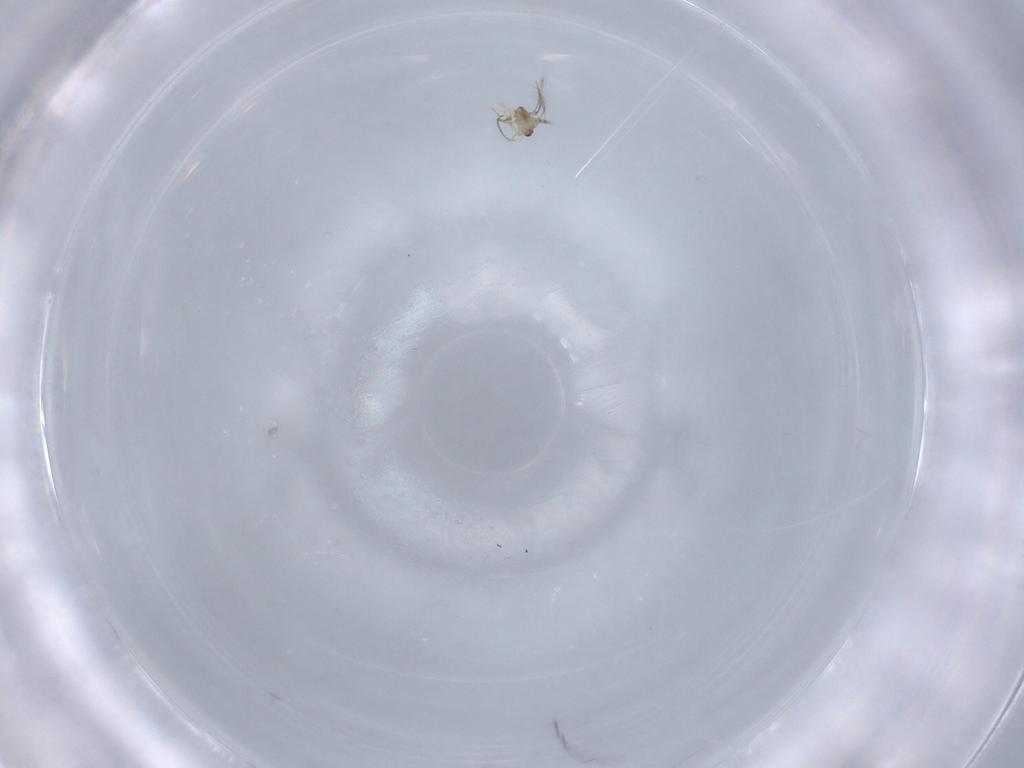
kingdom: Animalia
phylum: Arthropoda
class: Insecta
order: Hymenoptera
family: Mymaridae
